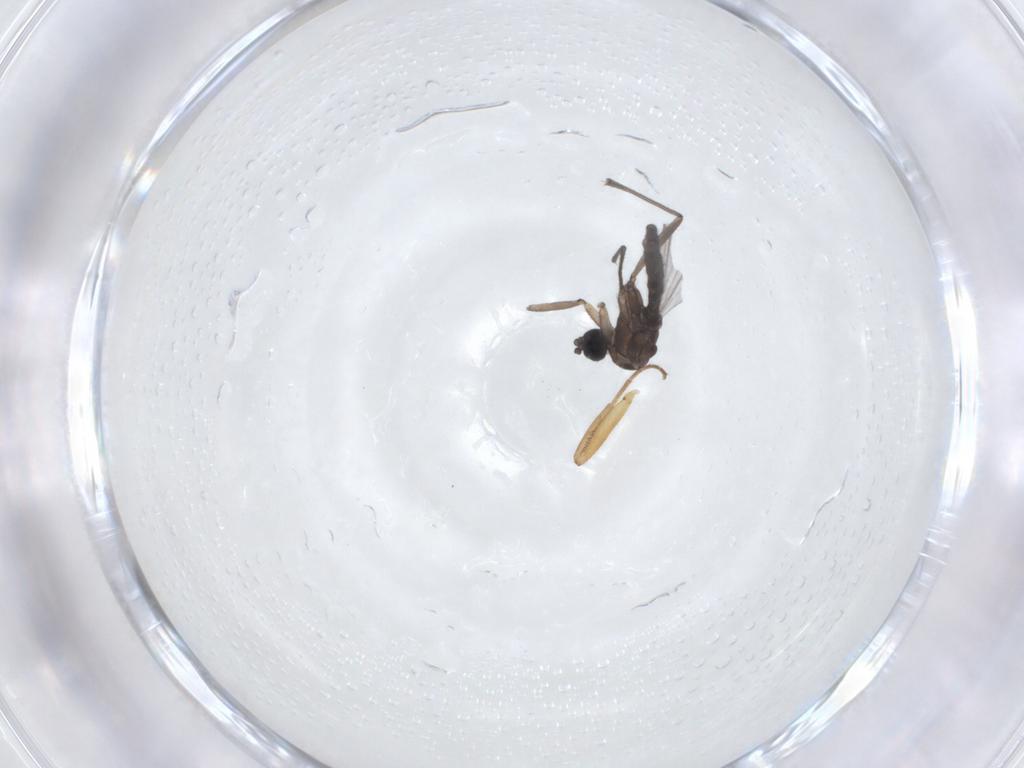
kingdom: Animalia
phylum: Arthropoda
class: Insecta
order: Diptera
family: Sciaridae
